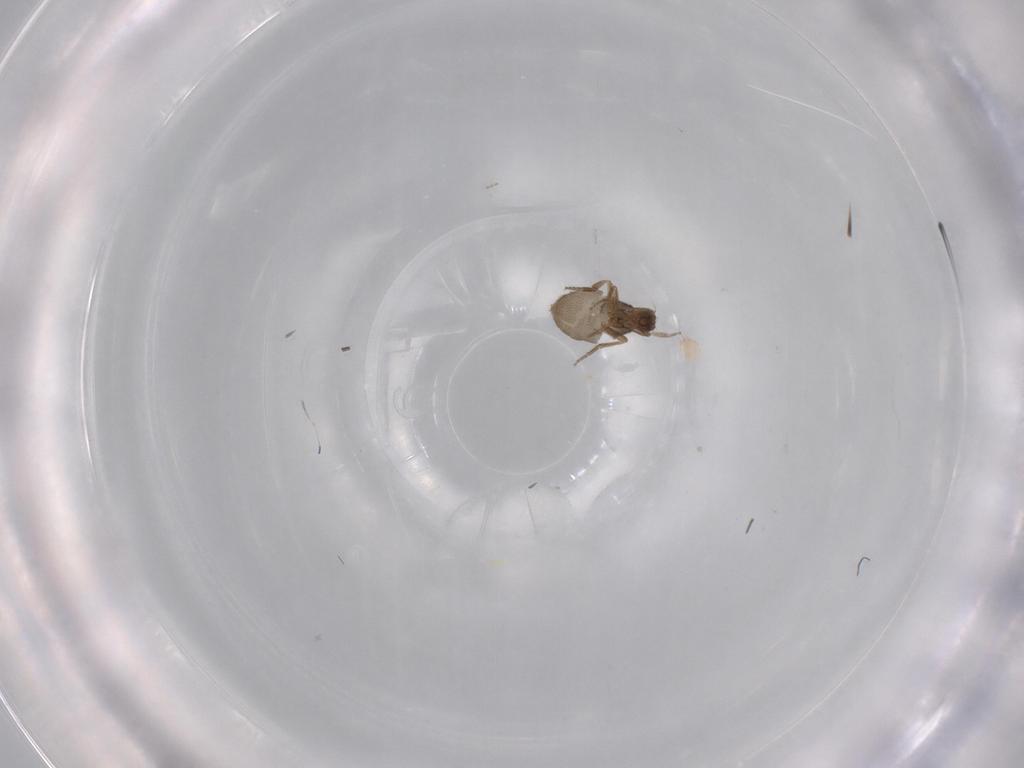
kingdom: Animalia
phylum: Arthropoda
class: Insecta
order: Diptera
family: Phoridae
